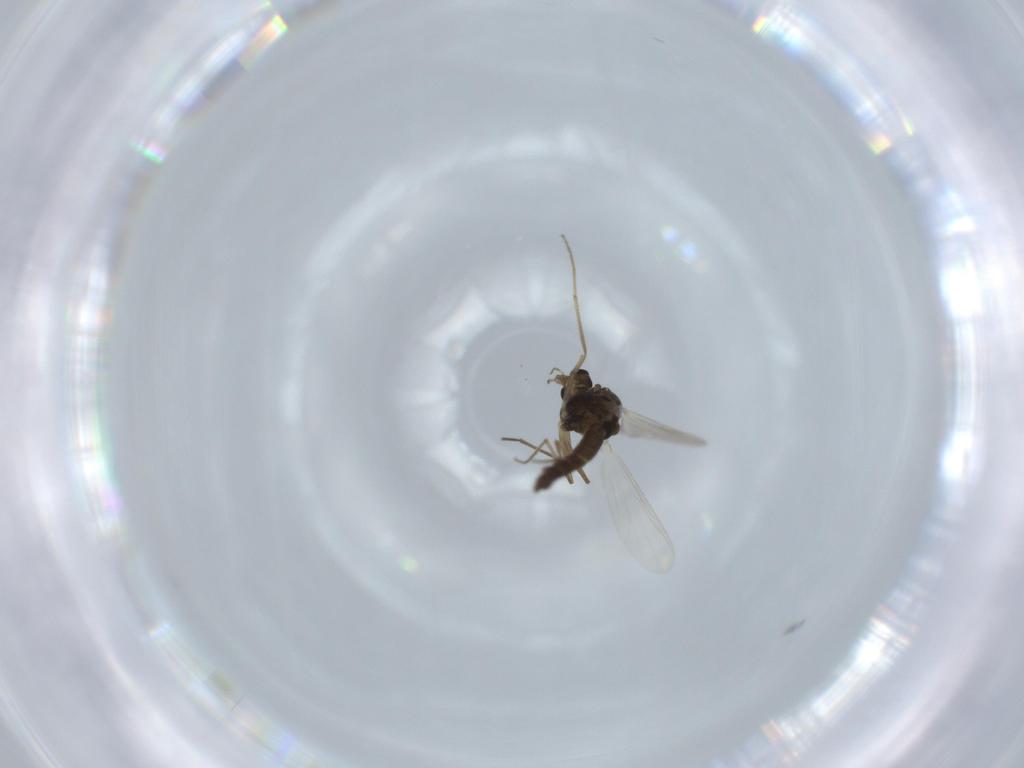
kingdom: Animalia
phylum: Arthropoda
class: Insecta
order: Diptera
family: Chironomidae
